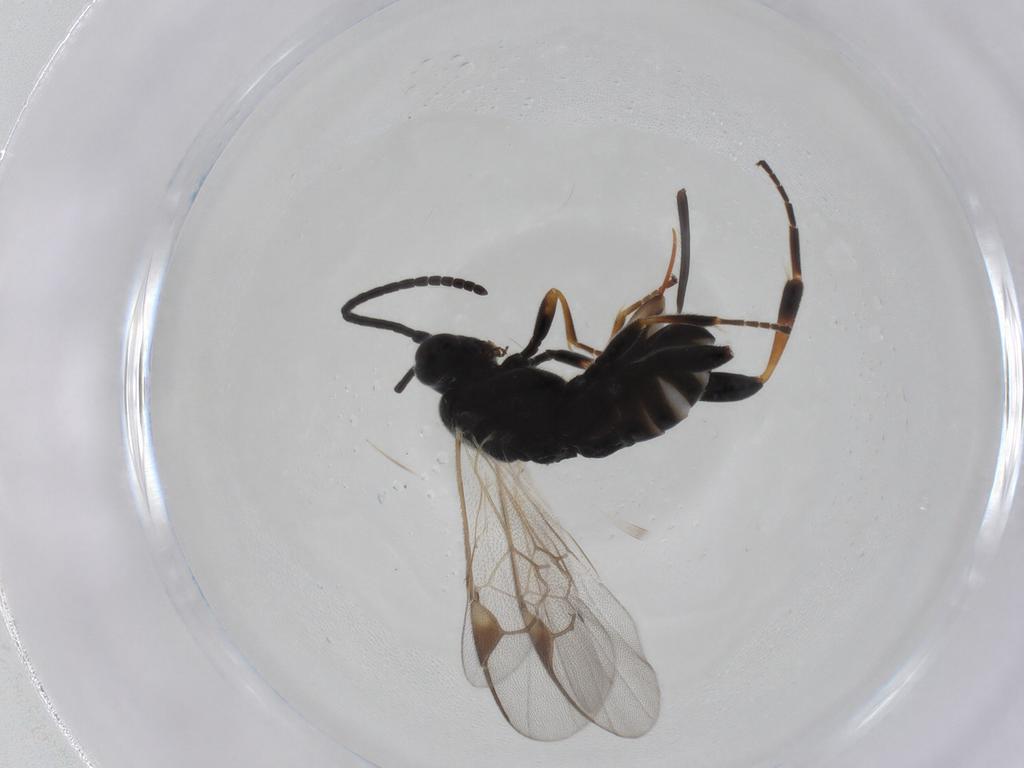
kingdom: Animalia
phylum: Arthropoda
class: Insecta
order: Hymenoptera
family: Braconidae
